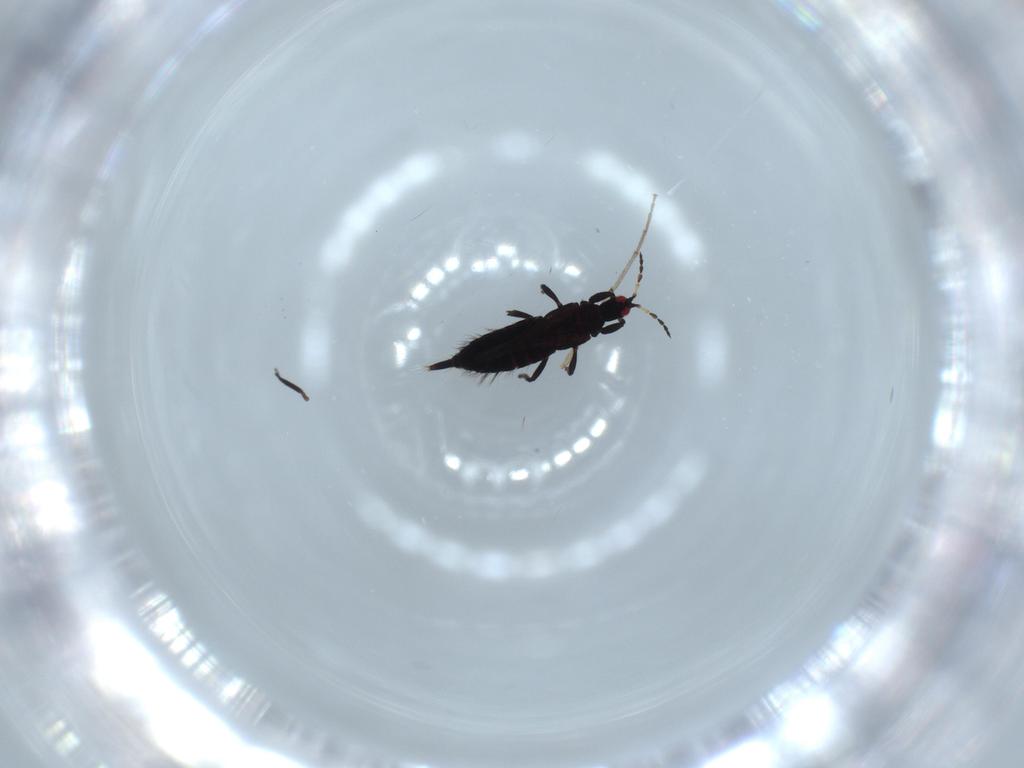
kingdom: Animalia
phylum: Arthropoda
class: Insecta
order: Thysanoptera
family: Phlaeothripidae
